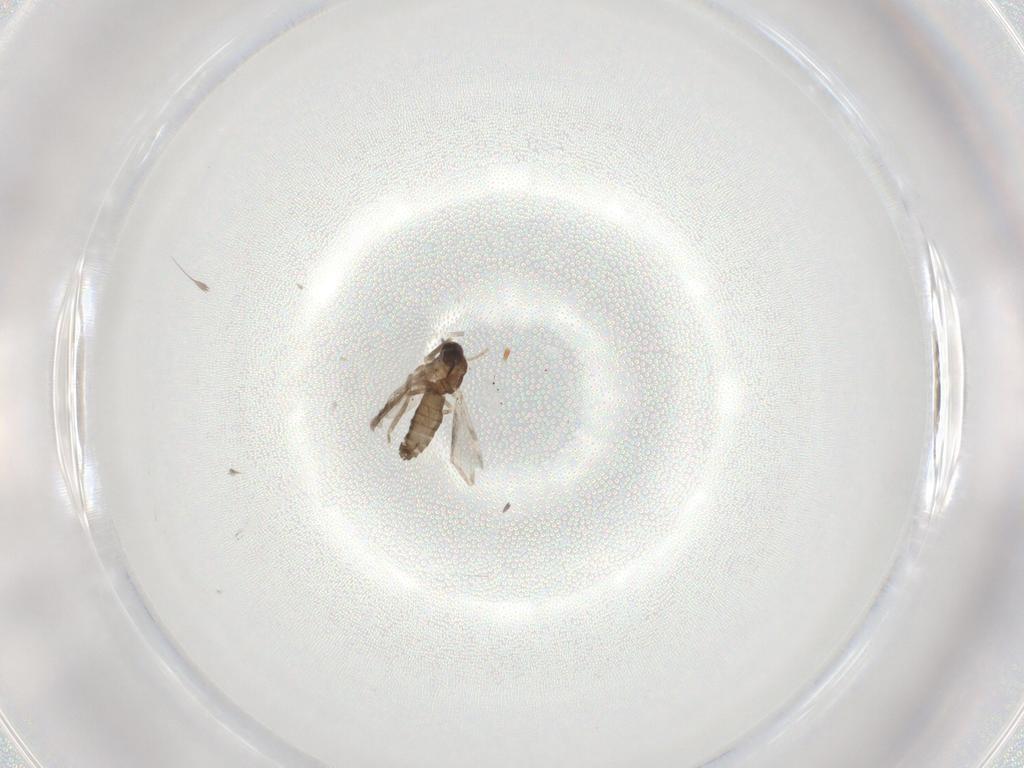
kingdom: Animalia
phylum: Arthropoda
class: Insecta
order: Diptera
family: Ceratopogonidae
